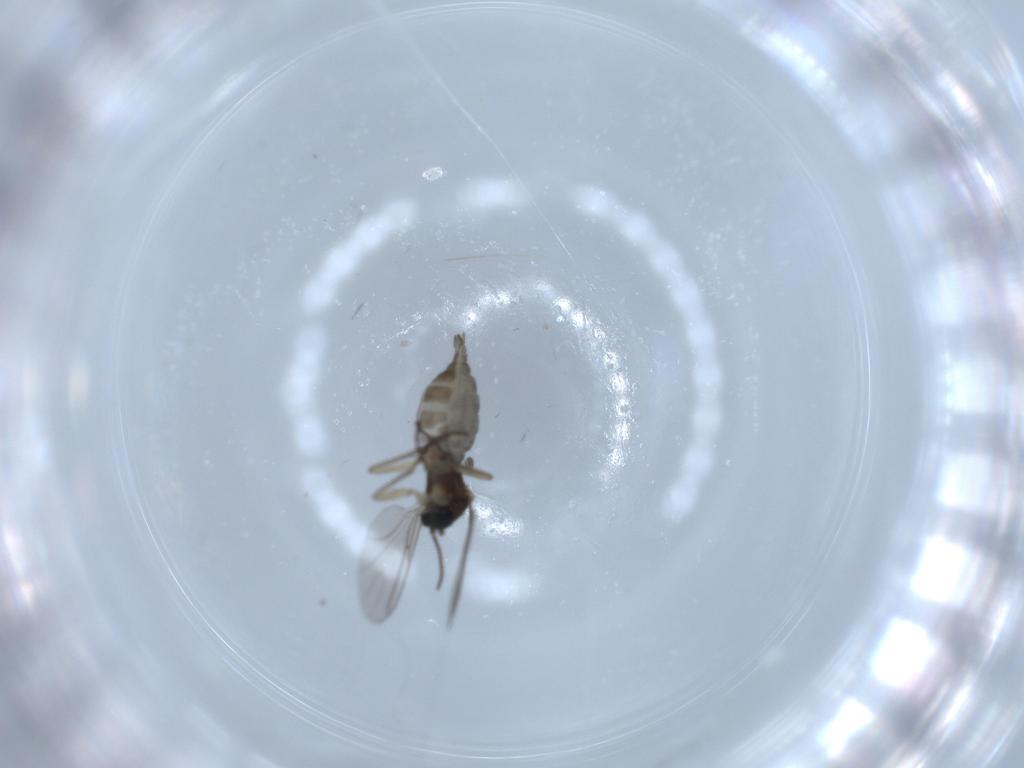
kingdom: Animalia
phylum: Arthropoda
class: Insecta
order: Diptera
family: Sciaridae
